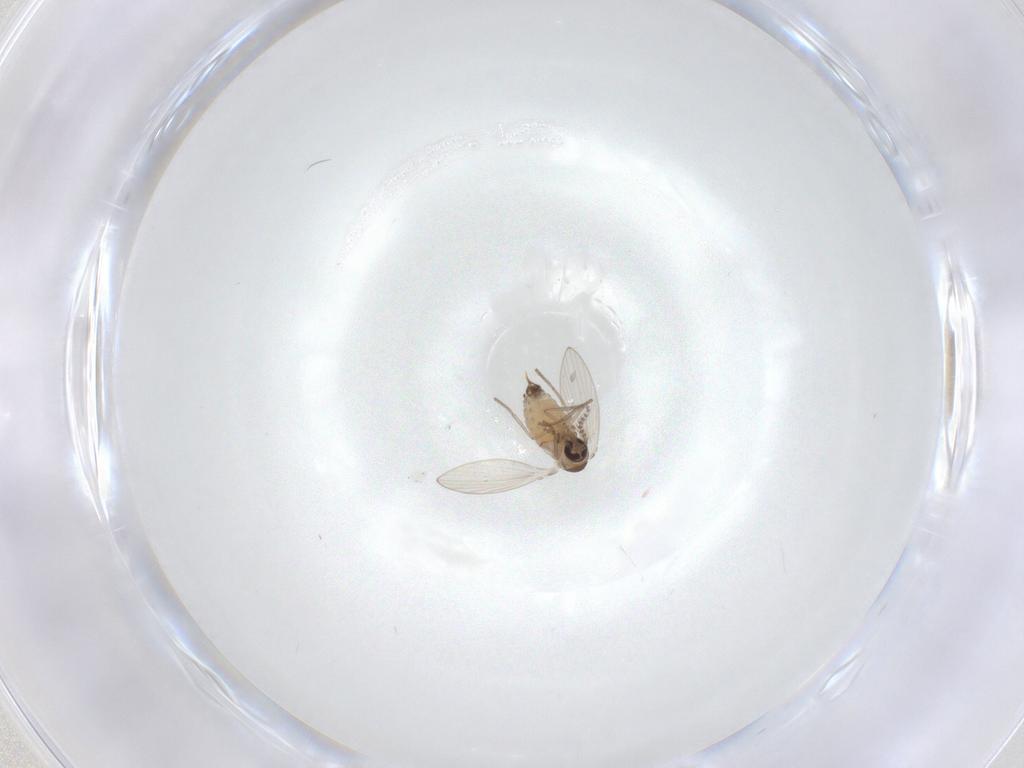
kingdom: Animalia
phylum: Arthropoda
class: Insecta
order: Diptera
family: Psychodidae
